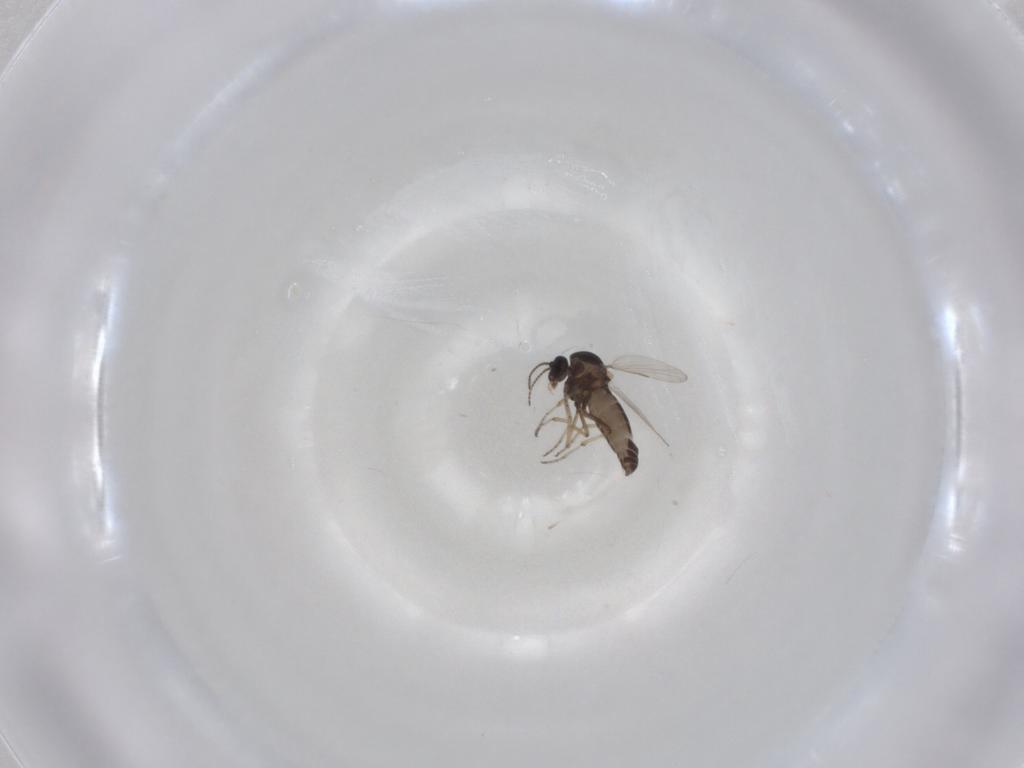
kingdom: Animalia
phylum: Arthropoda
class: Insecta
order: Diptera
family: Ceratopogonidae
